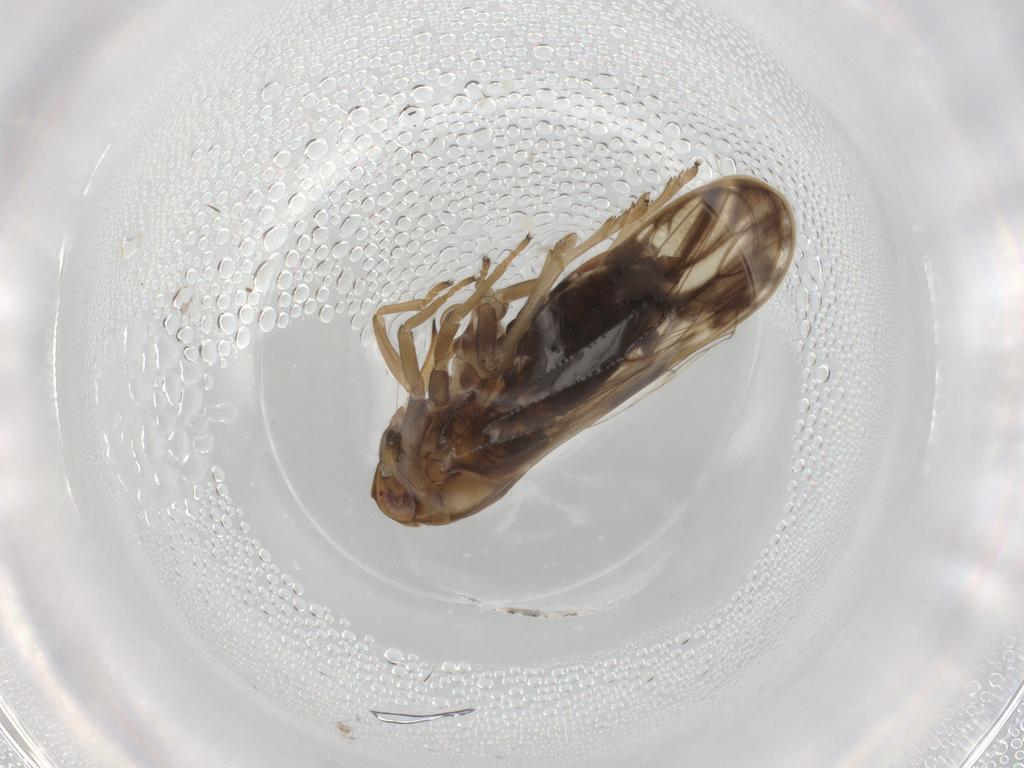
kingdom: Animalia
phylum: Arthropoda
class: Insecta
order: Hemiptera
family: Delphacidae
